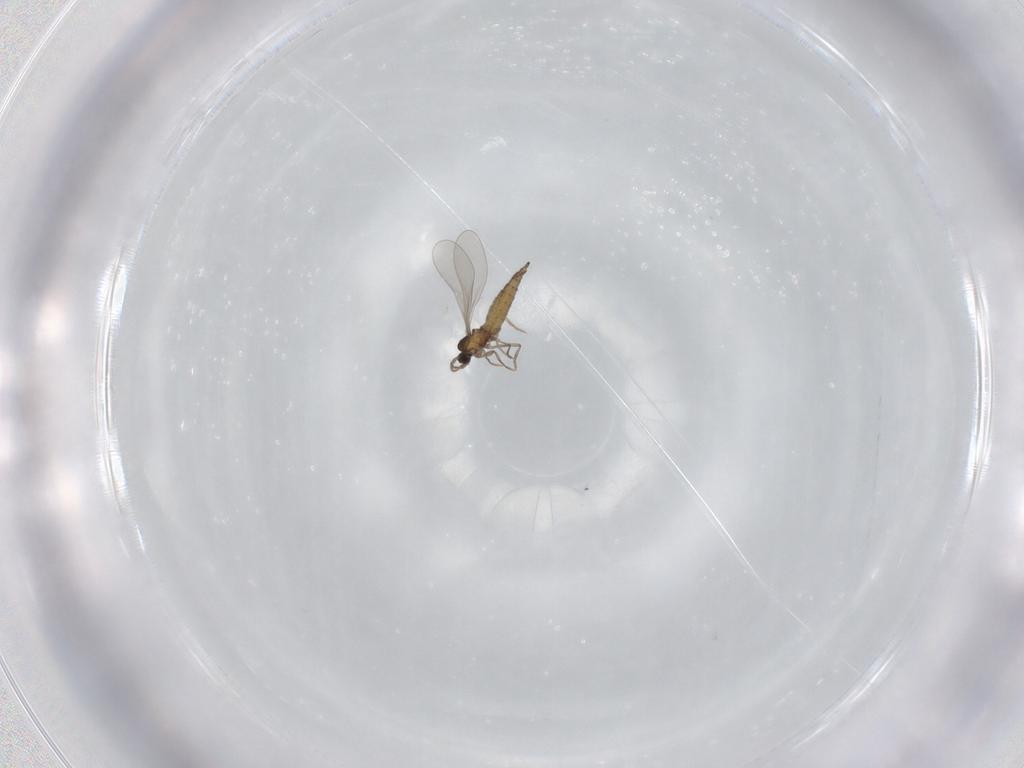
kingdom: Animalia
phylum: Arthropoda
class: Insecta
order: Diptera
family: Cecidomyiidae
